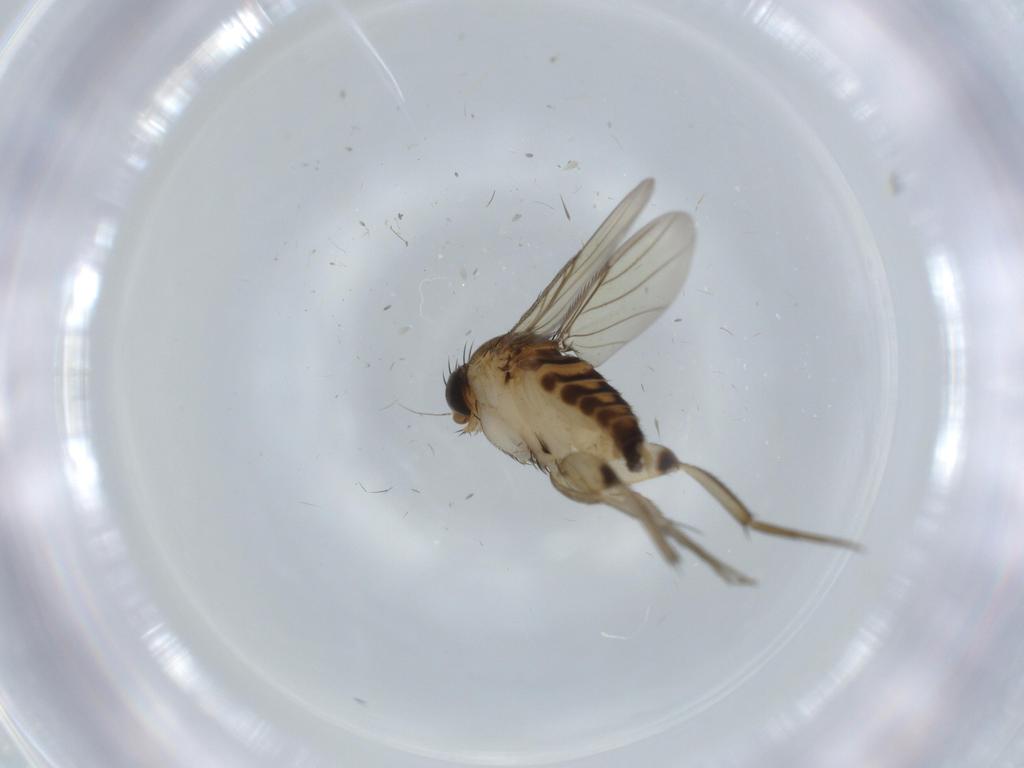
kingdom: Animalia
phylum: Arthropoda
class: Insecta
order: Diptera
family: Phoridae
